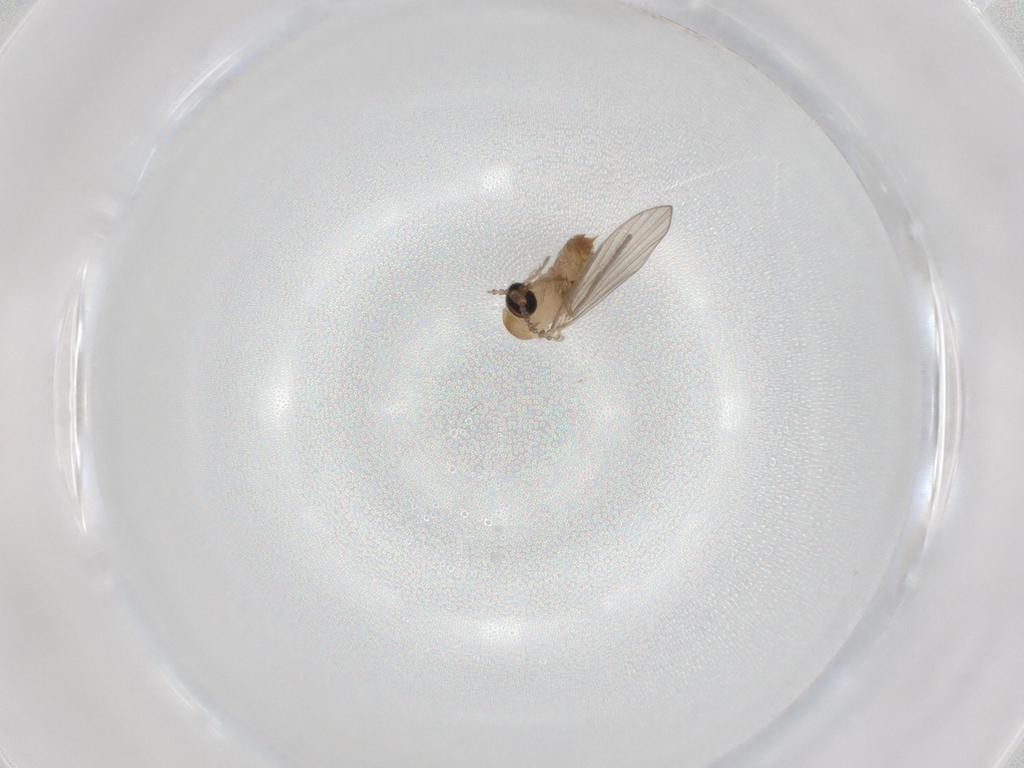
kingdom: Animalia
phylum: Arthropoda
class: Insecta
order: Diptera
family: Psychodidae
